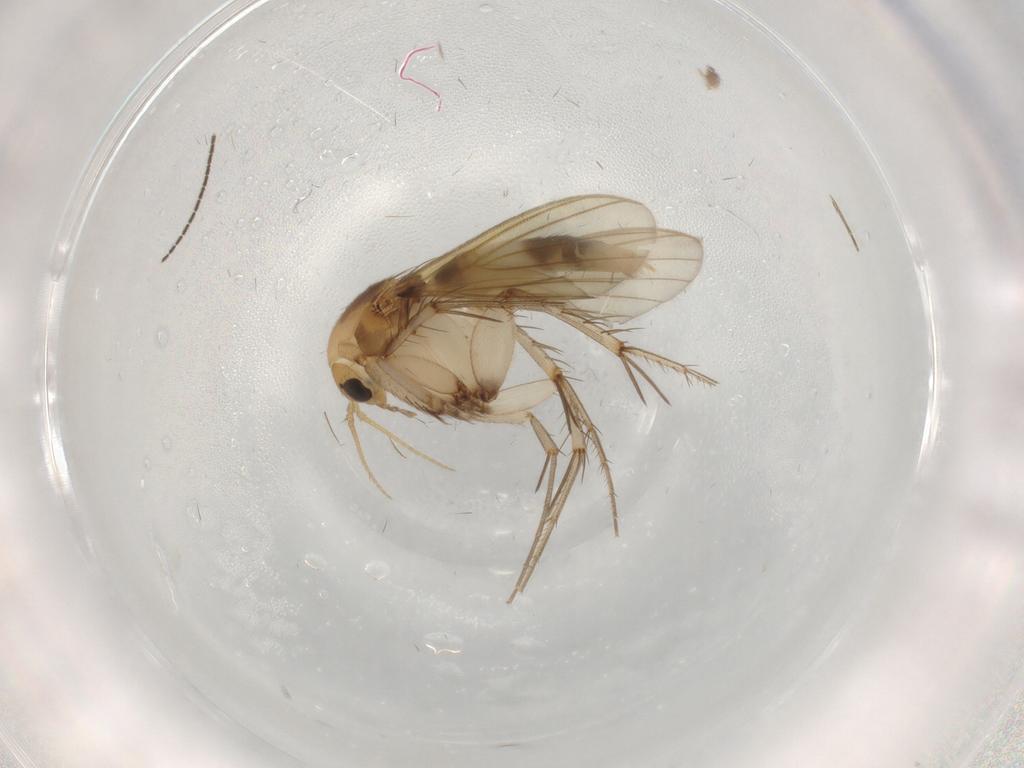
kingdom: Animalia
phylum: Arthropoda
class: Insecta
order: Diptera
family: Mycetophilidae
